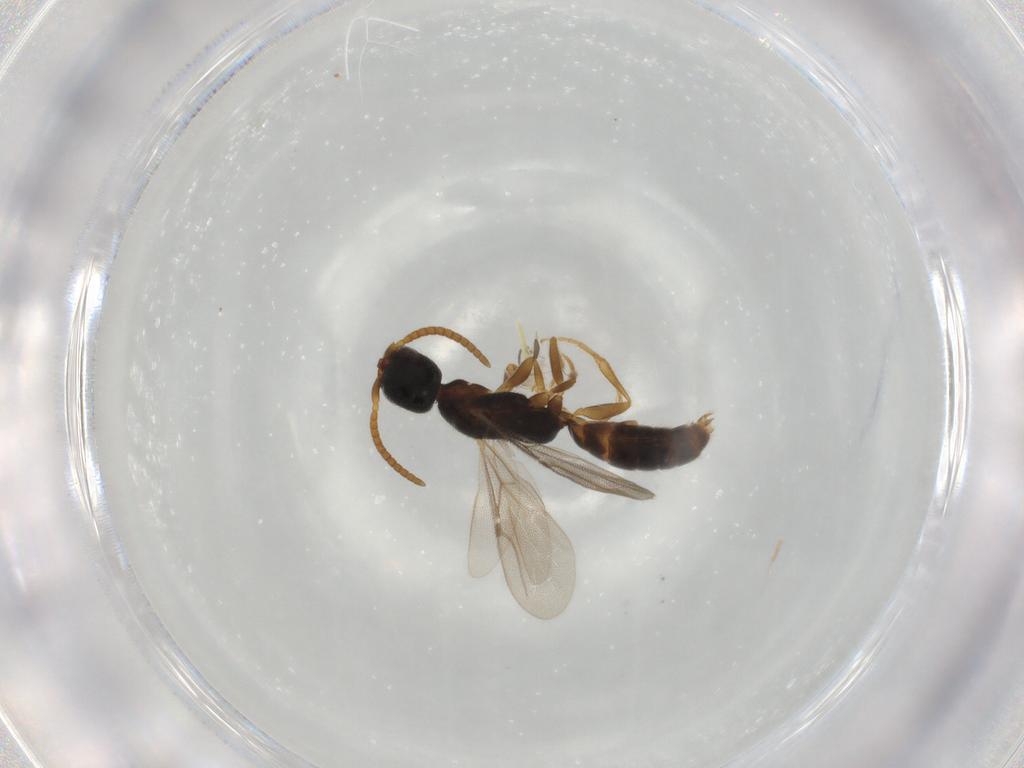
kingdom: Animalia
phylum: Arthropoda
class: Insecta
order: Hymenoptera
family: Bethylidae
